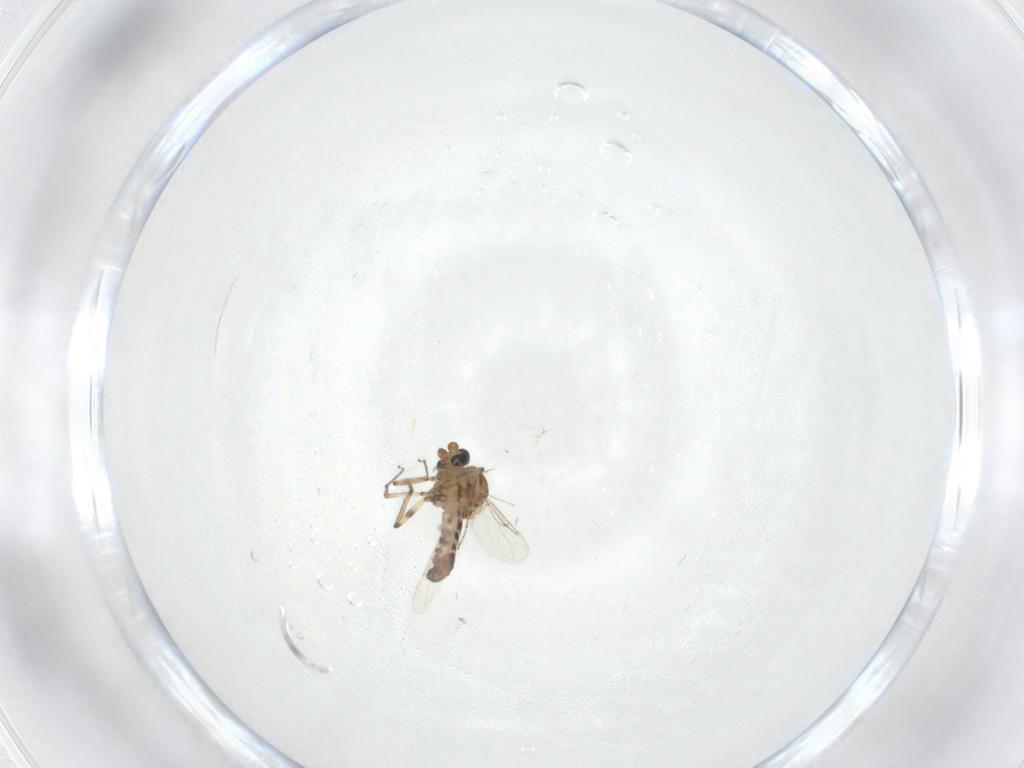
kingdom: Animalia
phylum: Arthropoda
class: Insecta
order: Diptera
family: Ceratopogonidae
